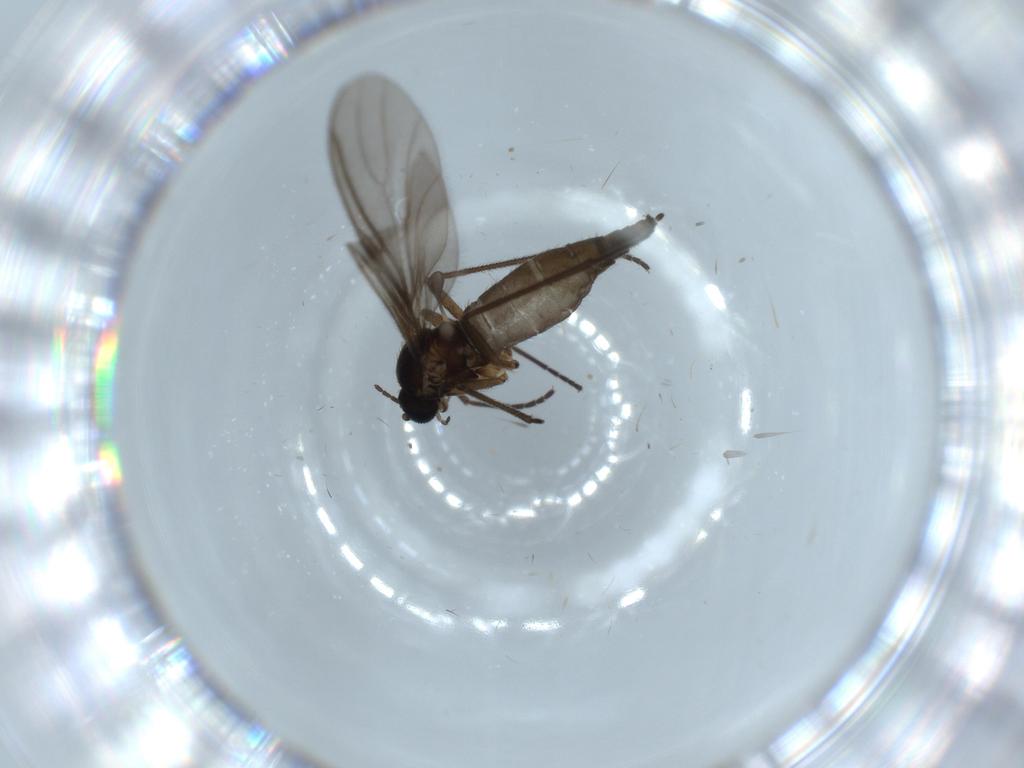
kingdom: Animalia
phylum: Arthropoda
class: Insecta
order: Diptera
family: Sciaridae
